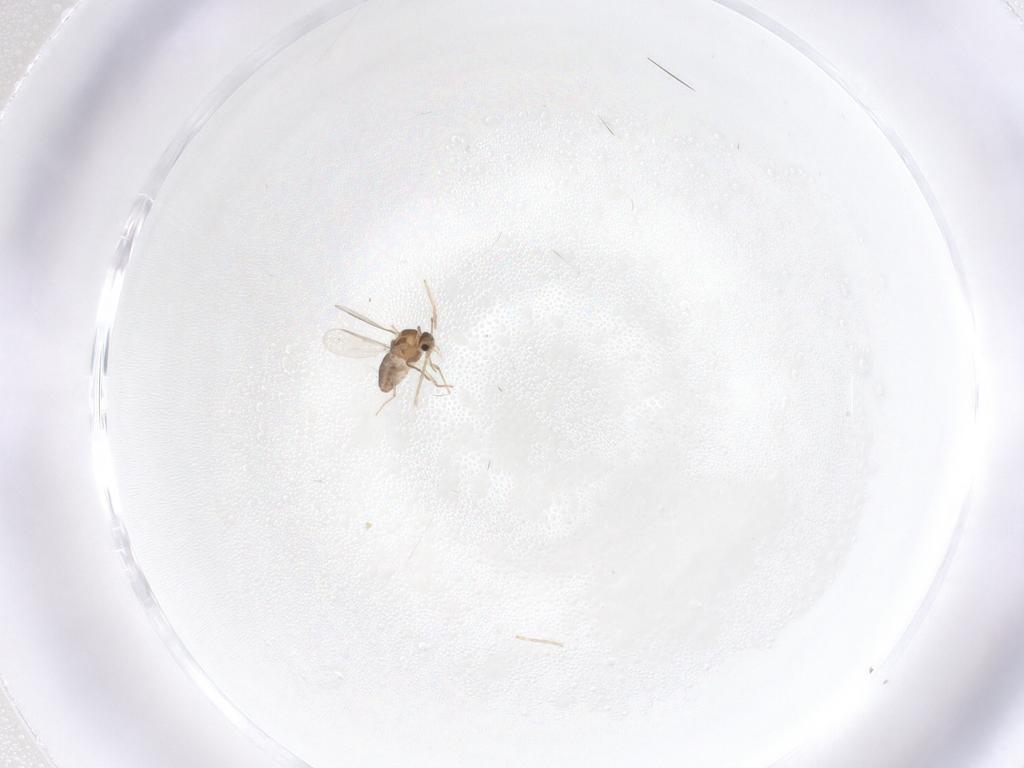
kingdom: Animalia
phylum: Arthropoda
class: Insecta
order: Diptera
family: Chironomidae
